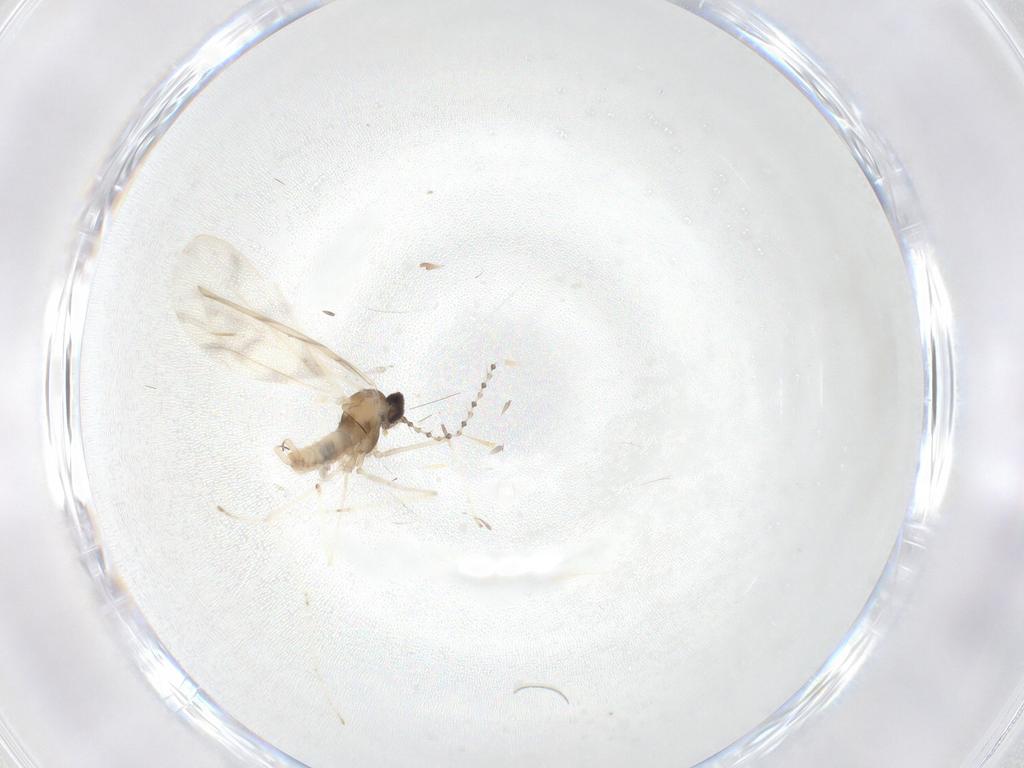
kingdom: Animalia
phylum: Arthropoda
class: Insecta
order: Diptera
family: Cecidomyiidae
